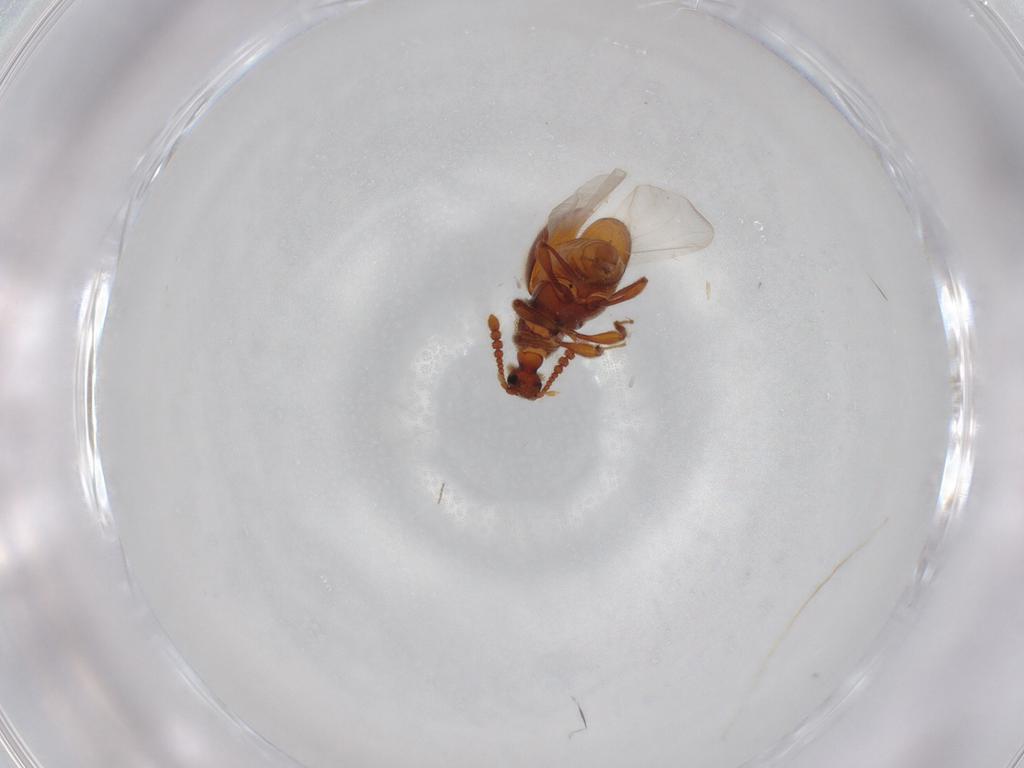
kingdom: Animalia
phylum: Arthropoda
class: Insecta
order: Coleoptera
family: Staphylinidae
